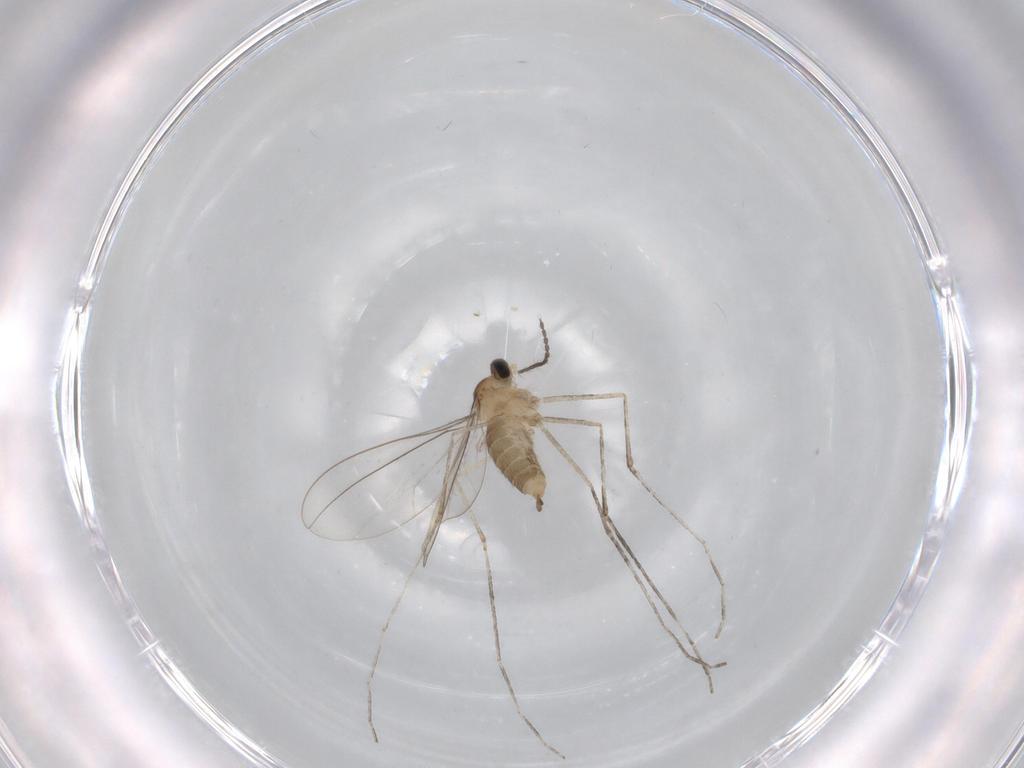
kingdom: Animalia
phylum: Arthropoda
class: Insecta
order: Diptera
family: Cecidomyiidae
